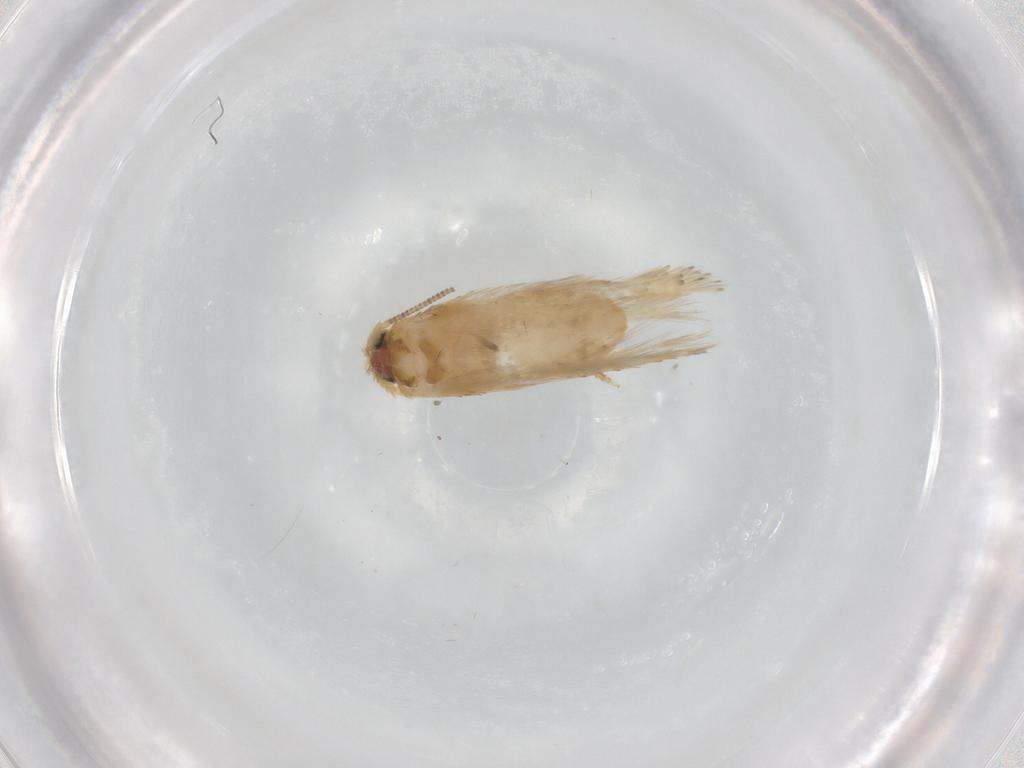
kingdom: Animalia
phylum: Arthropoda
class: Insecta
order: Lepidoptera
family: Nepticulidae
